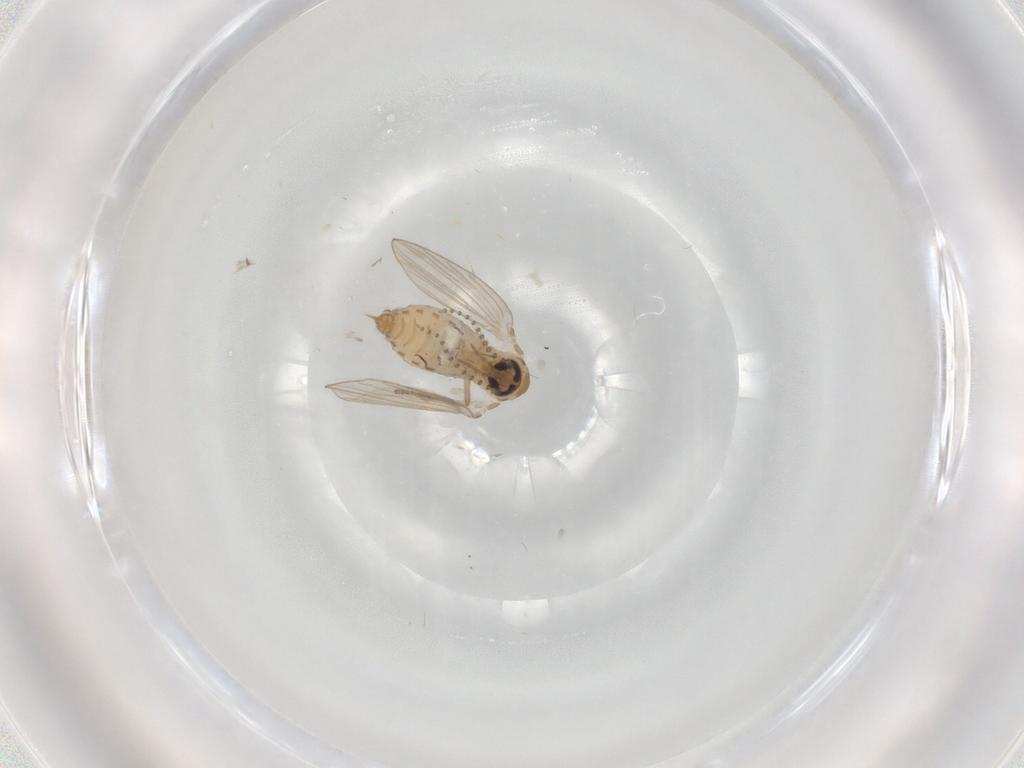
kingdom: Animalia
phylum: Arthropoda
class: Insecta
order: Diptera
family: Psychodidae
